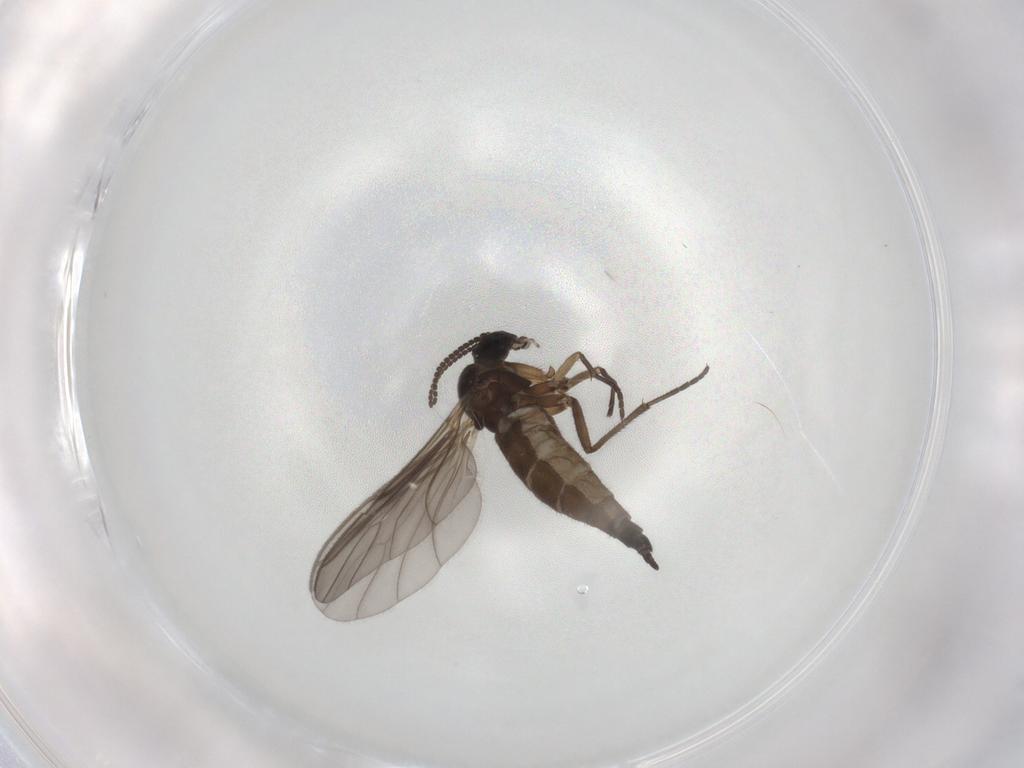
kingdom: Animalia
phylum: Arthropoda
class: Insecta
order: Diptera
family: Sciaridae
